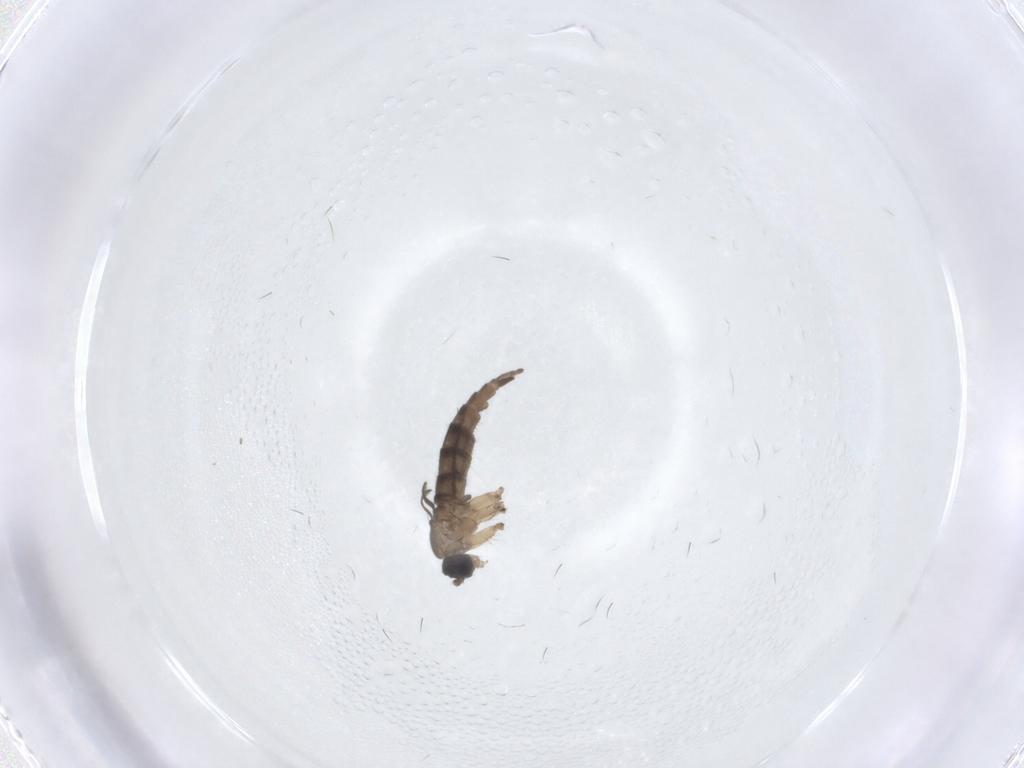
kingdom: Animalia
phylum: Arthropoda
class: Insecta
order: Diptera
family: Sciaridae
